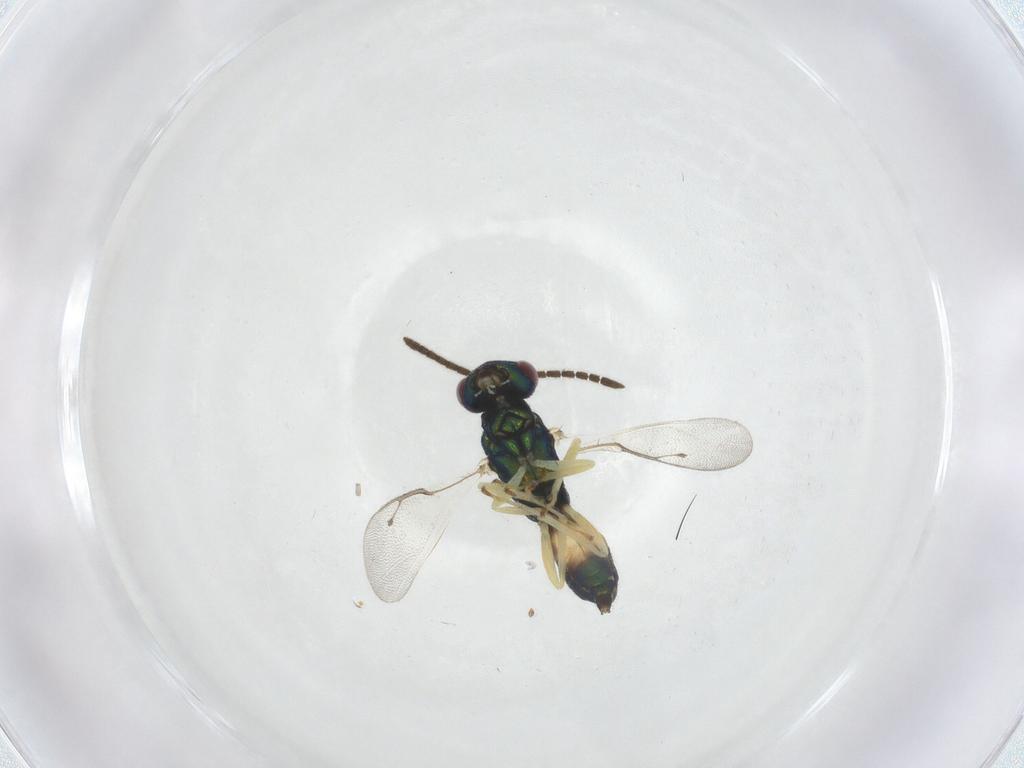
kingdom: Animalia
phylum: Arthropoda
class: Insecta
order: Hymenoptera
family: Pteromalidae
